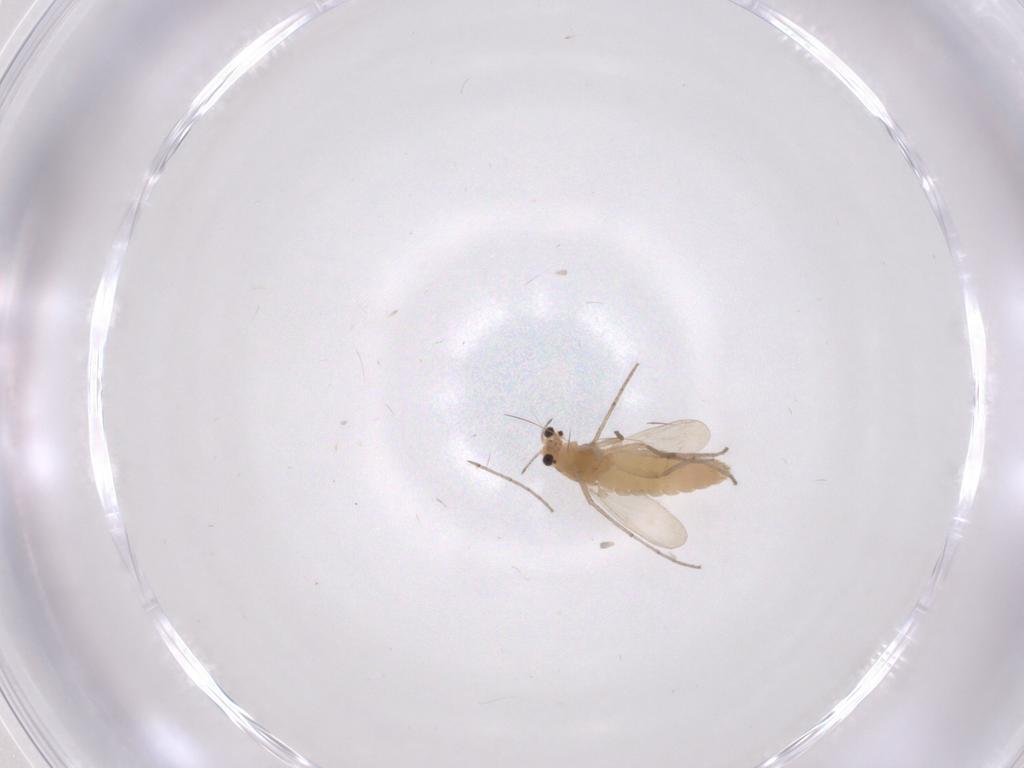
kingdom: Animalia
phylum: Arthropoda
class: Insecta
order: Diptera
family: Chironomidae
